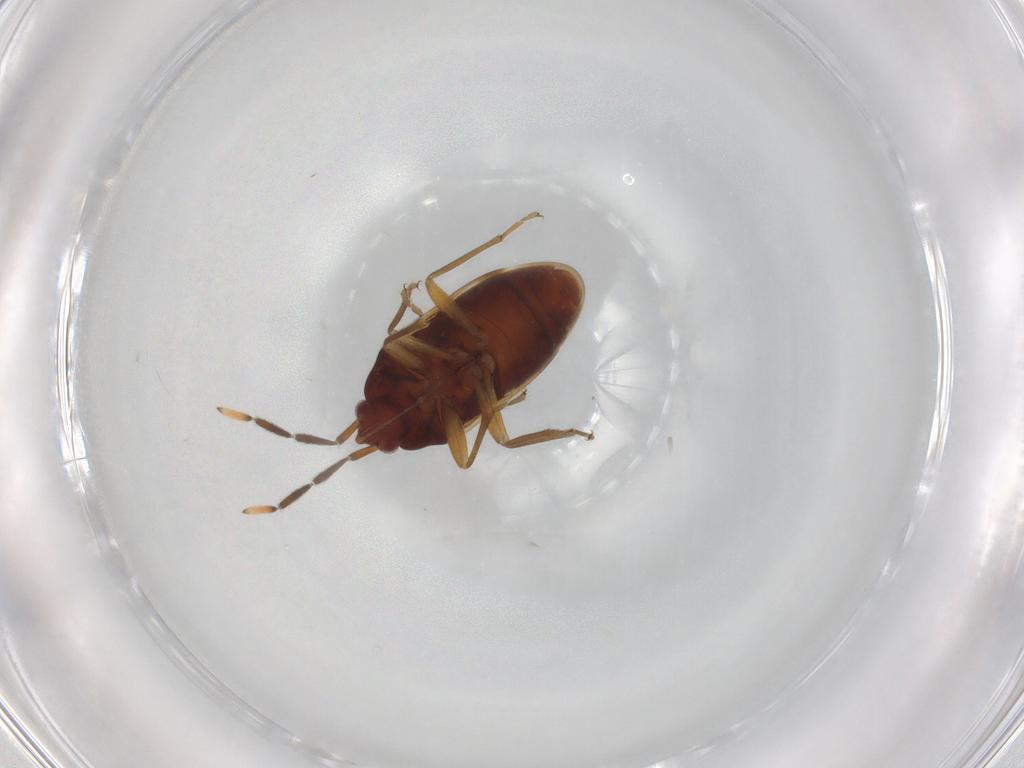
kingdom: Animalia
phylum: Arthropoda
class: Insecta
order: Hemiptera
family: Rhyparochromidae
